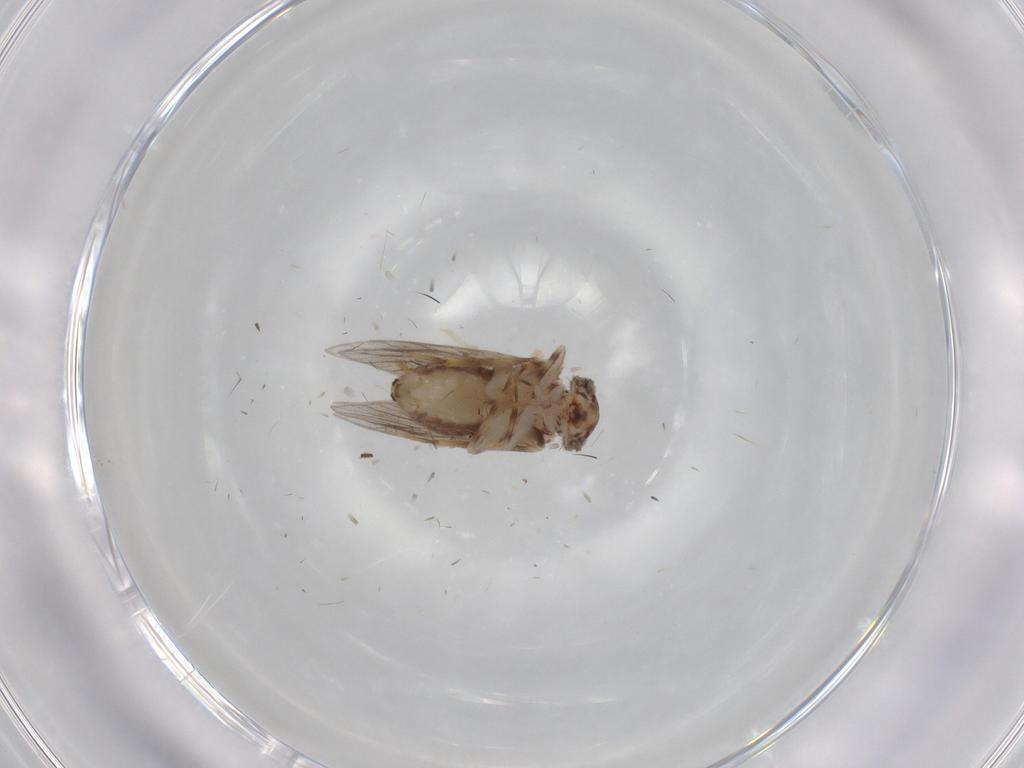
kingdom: Animalia
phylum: Arthropoda
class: Insecta
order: Psocodea
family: Lepidopsocidae
